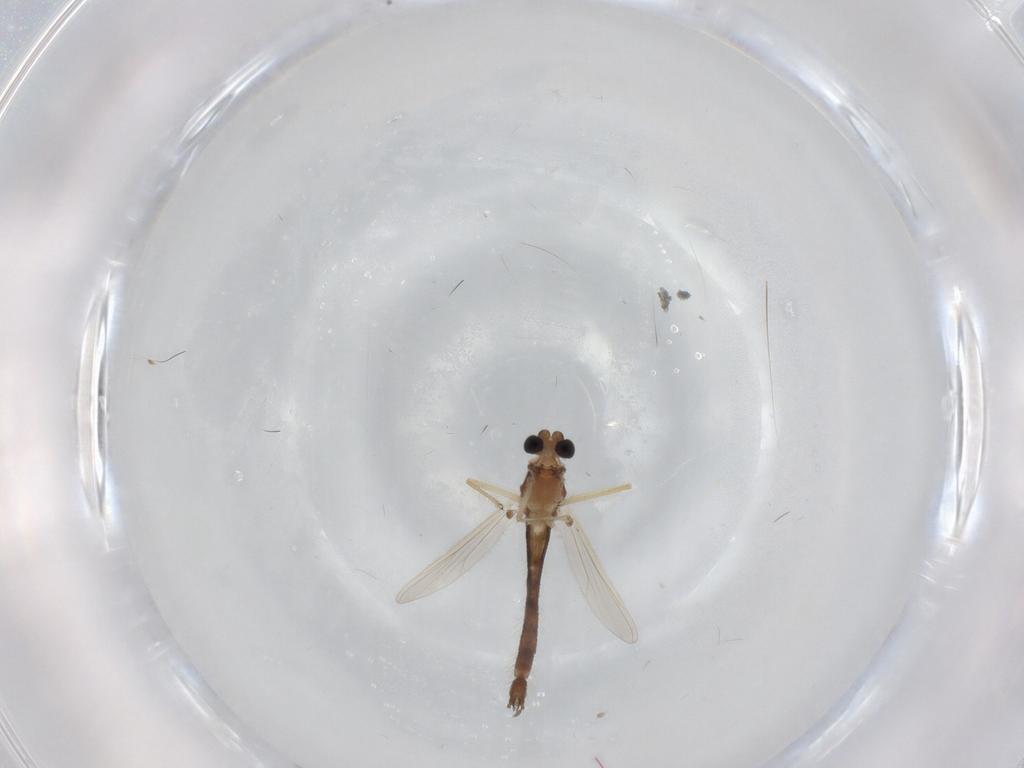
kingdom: Animalia
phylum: Arthropoda
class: Insecta
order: Diptera
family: Chironomidae
